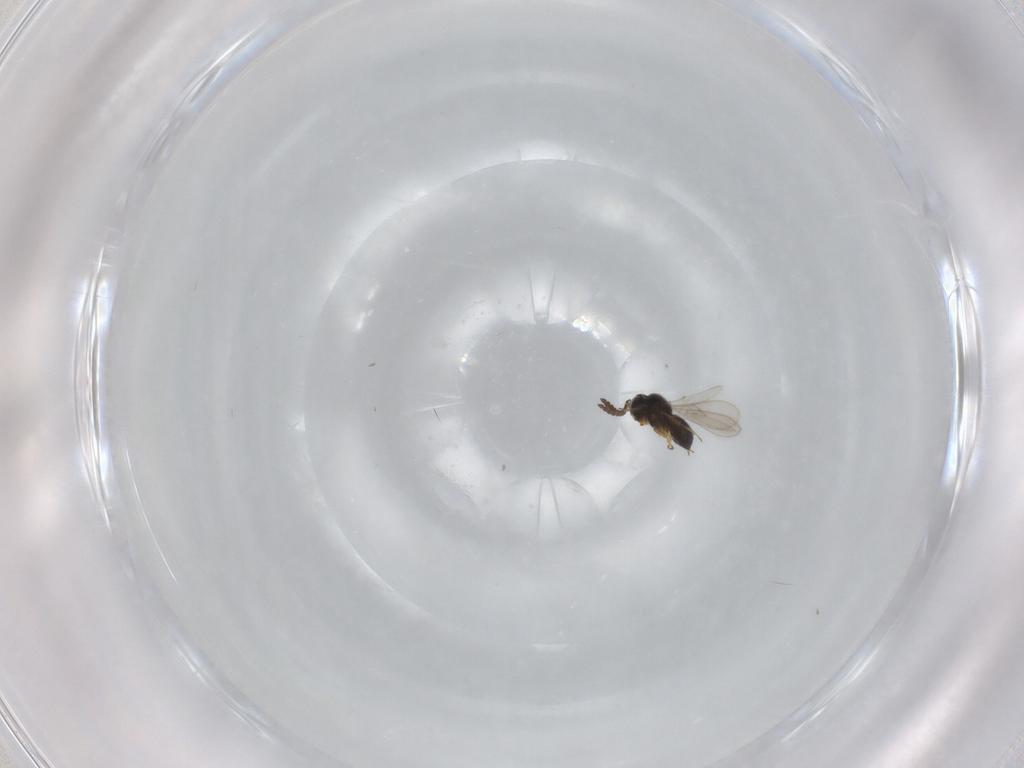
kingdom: Animalia
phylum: Arthropoda
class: Insecta
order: Hymenoptera
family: Scelionidae
